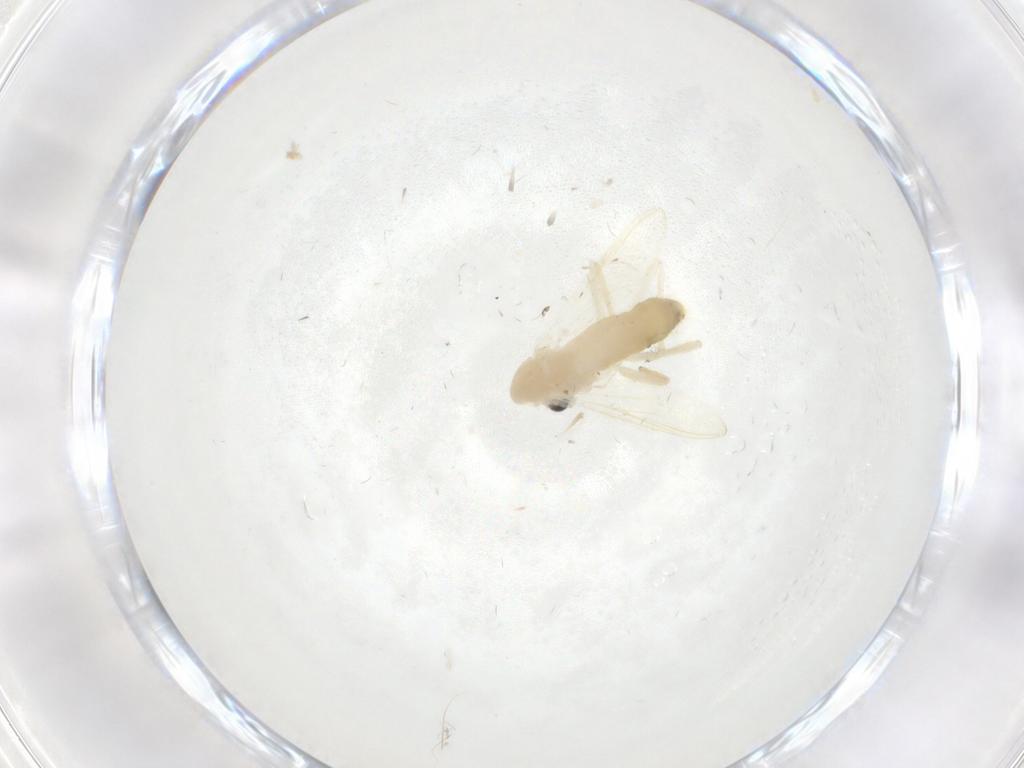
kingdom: Animalia
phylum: Arthropoda
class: Insecta
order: Diptera
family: Chironomidae
